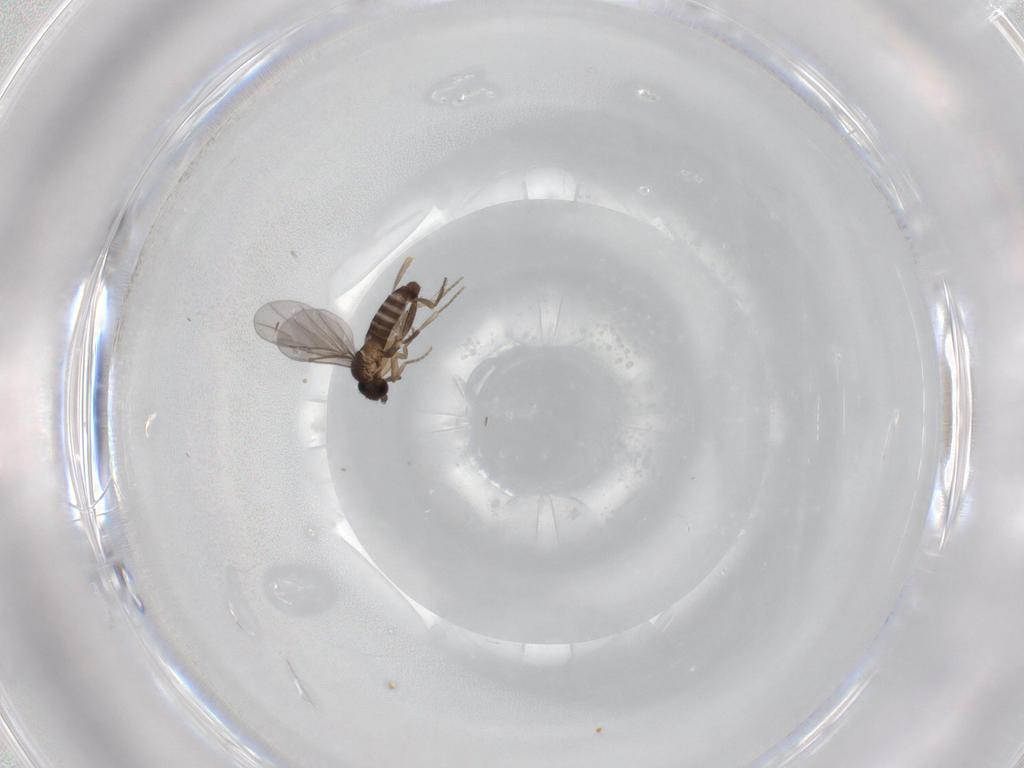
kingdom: Animalia
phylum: Arthropoda
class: Insecta
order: Diptera
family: Phoridae
